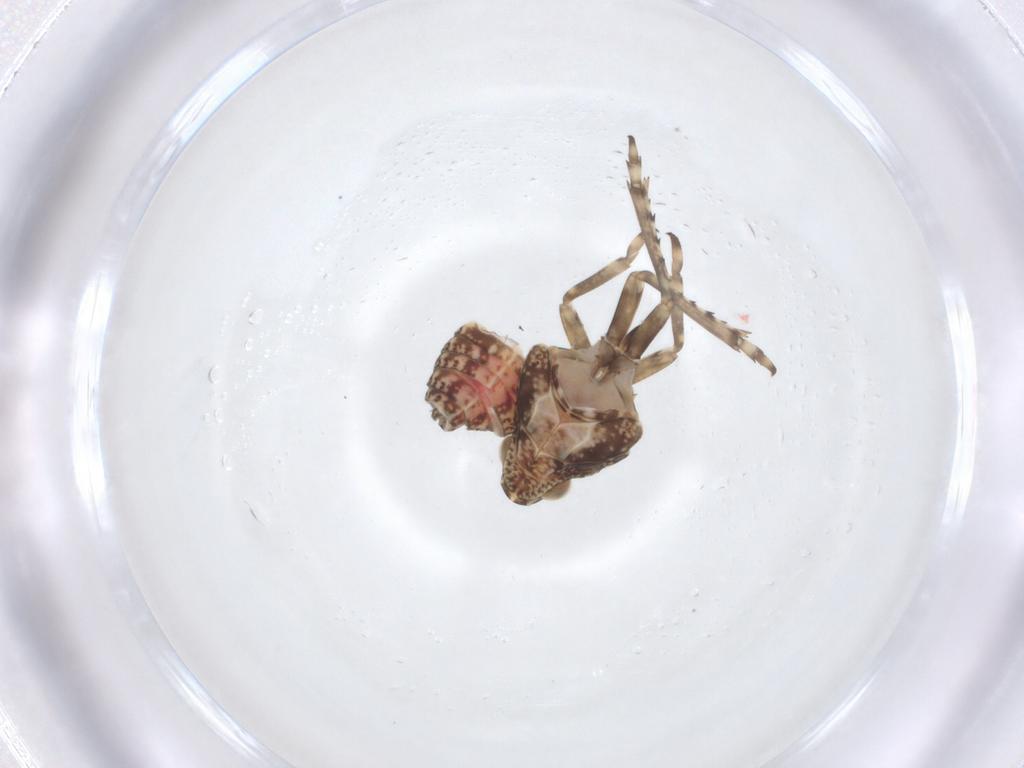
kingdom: Animalia
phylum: Arthropoda
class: Insecta
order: Hemiptera
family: Tropiduchidae
